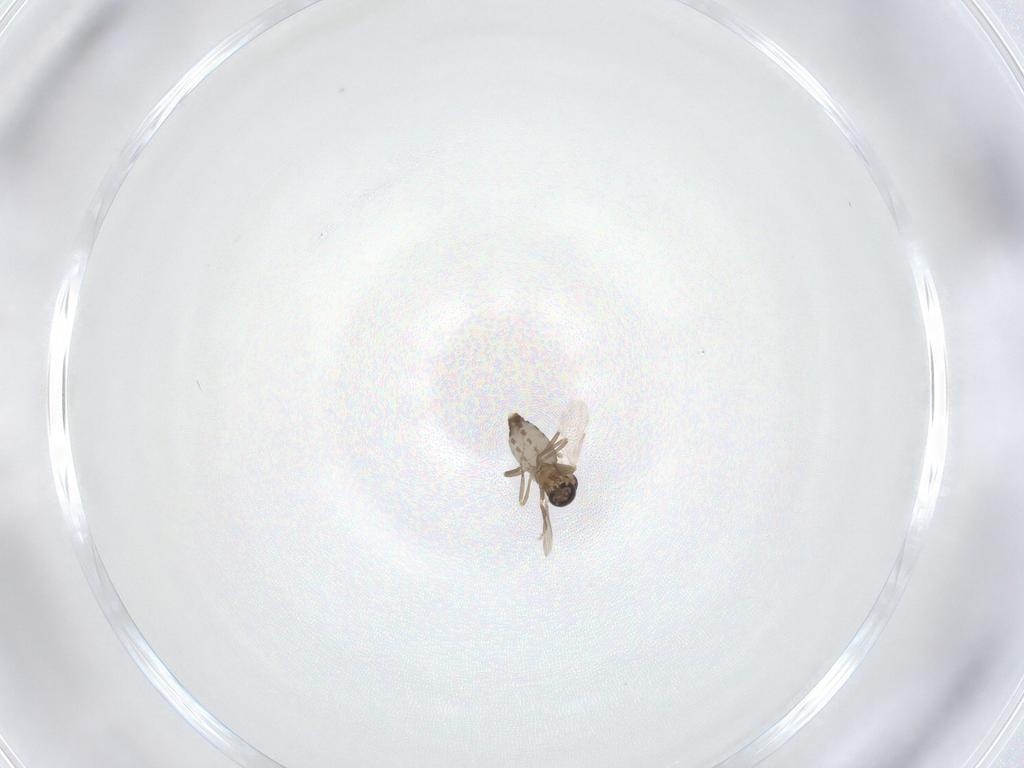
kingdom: Animalia
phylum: Arthropoda
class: Insecta
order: Diptera
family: Ceratopogonidae
